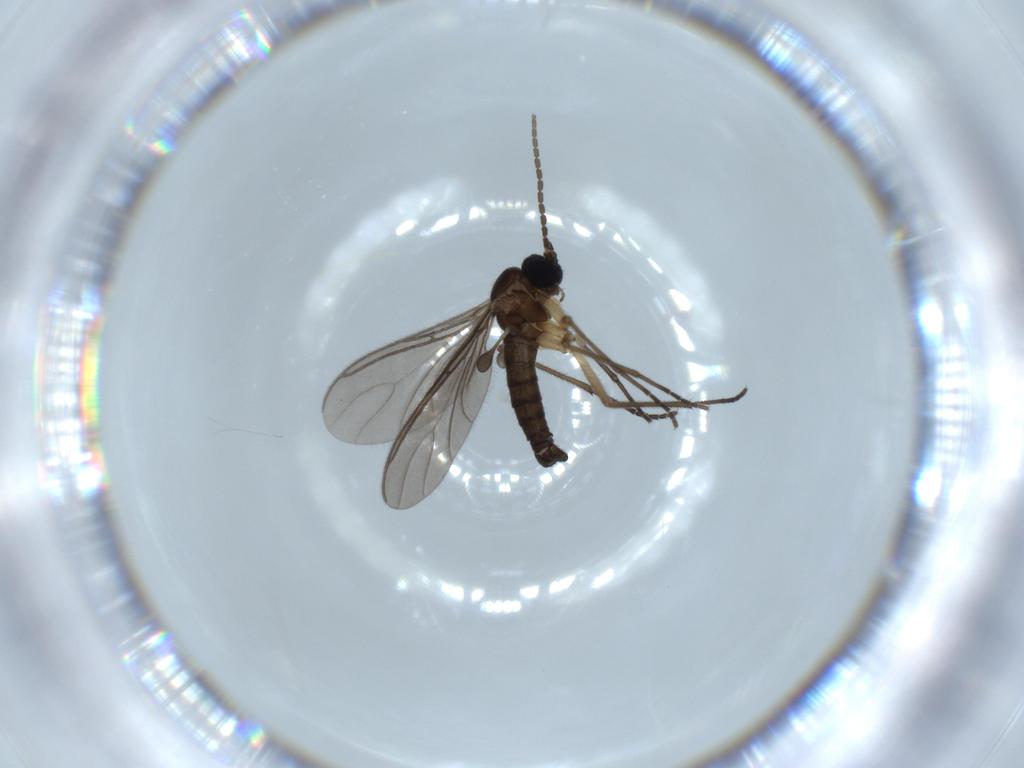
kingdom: Animalia
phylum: Arthropoda
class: Insecta
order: Diptera
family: Sciaridae
